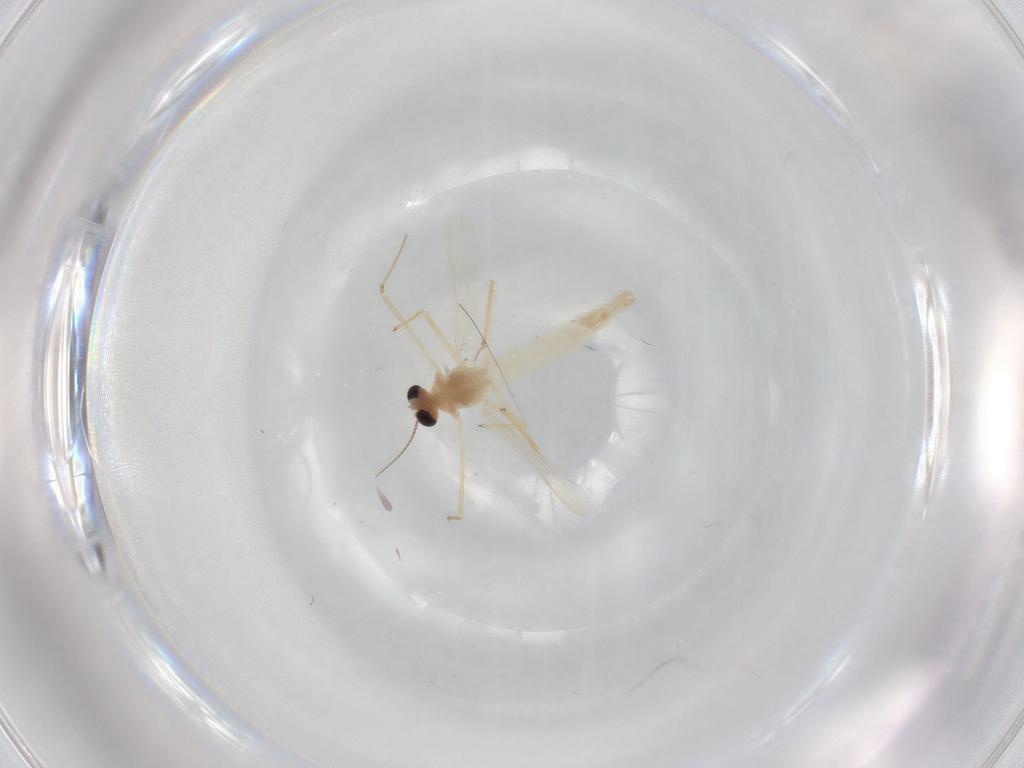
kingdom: Animalia
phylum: Arthropoda
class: Insecta
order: Diptera
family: Chironomidae
